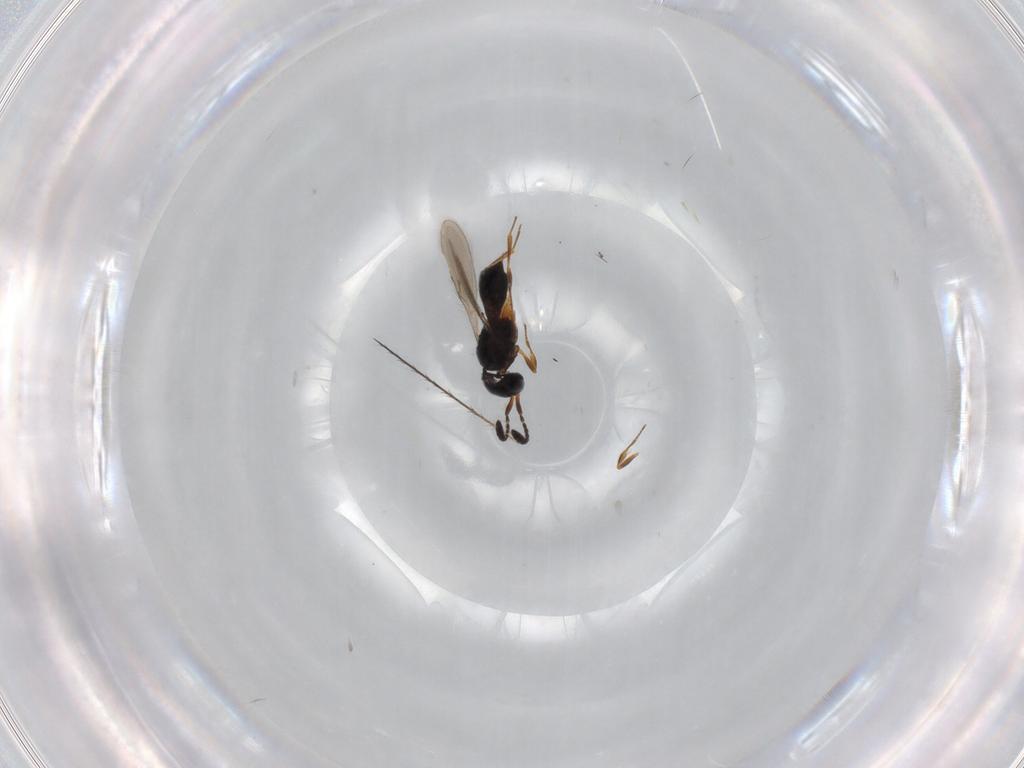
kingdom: Animalia
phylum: Arthropoda
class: Insecta
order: Hymenoptera
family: Scelionidae
